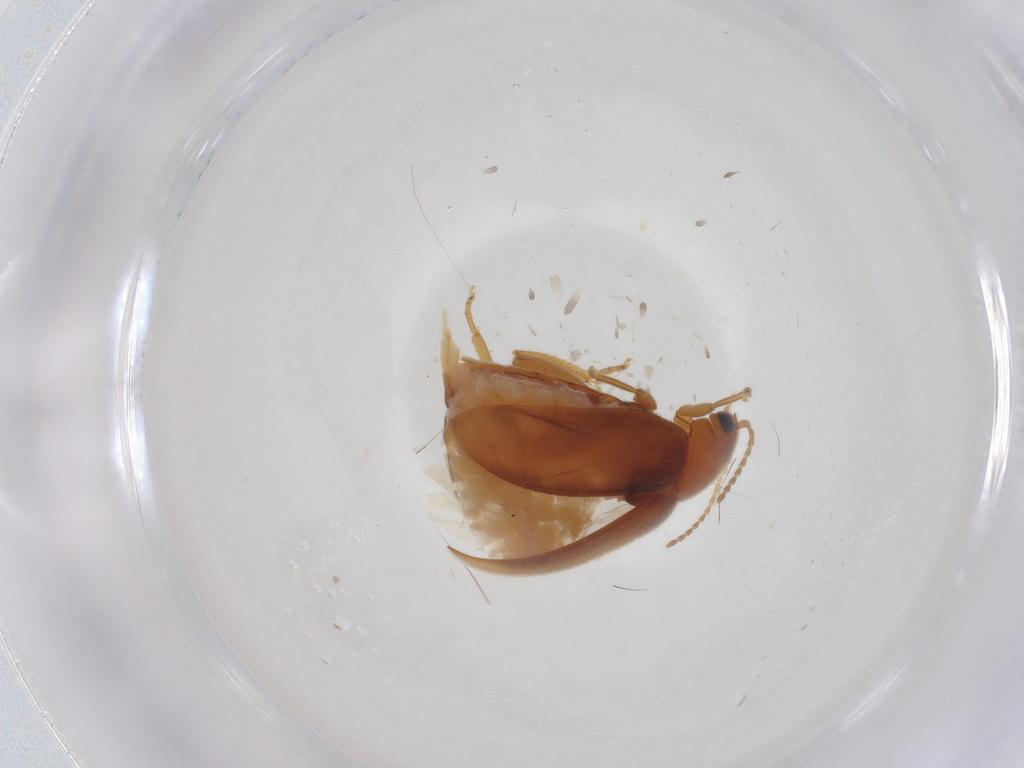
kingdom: Animalia
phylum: Arthropoda
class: Insecta
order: Coleoptera
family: Scirtidae
